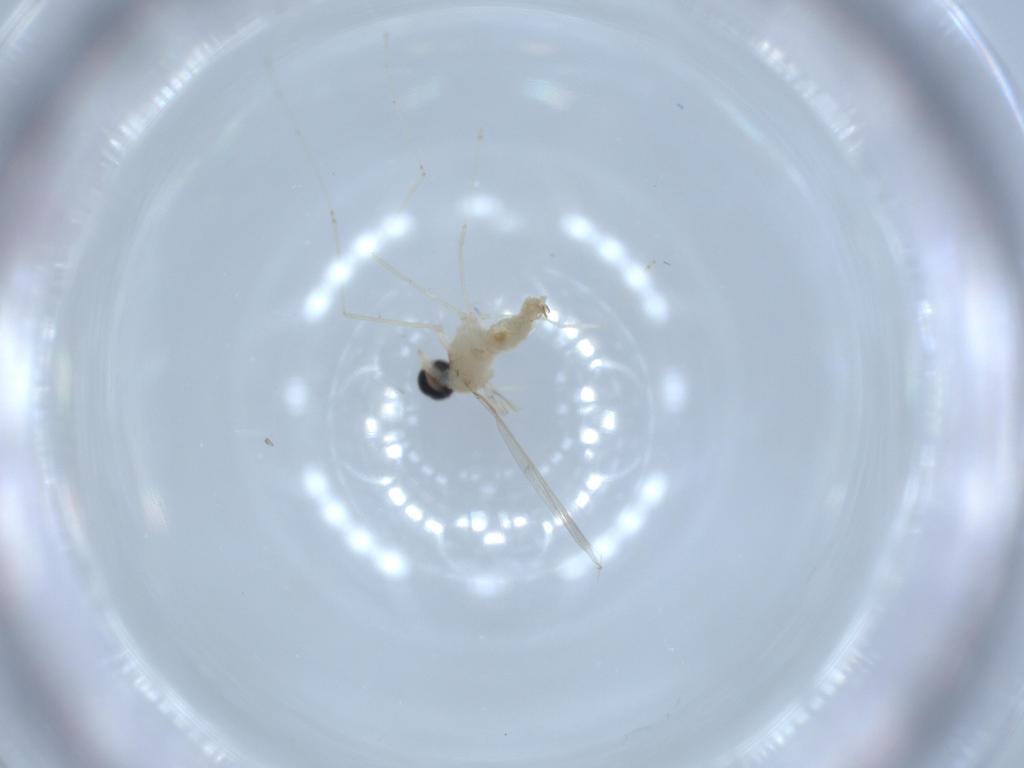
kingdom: Animalia
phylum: Arthropoda
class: Insecta
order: Diptera
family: Cecidomyiidae
